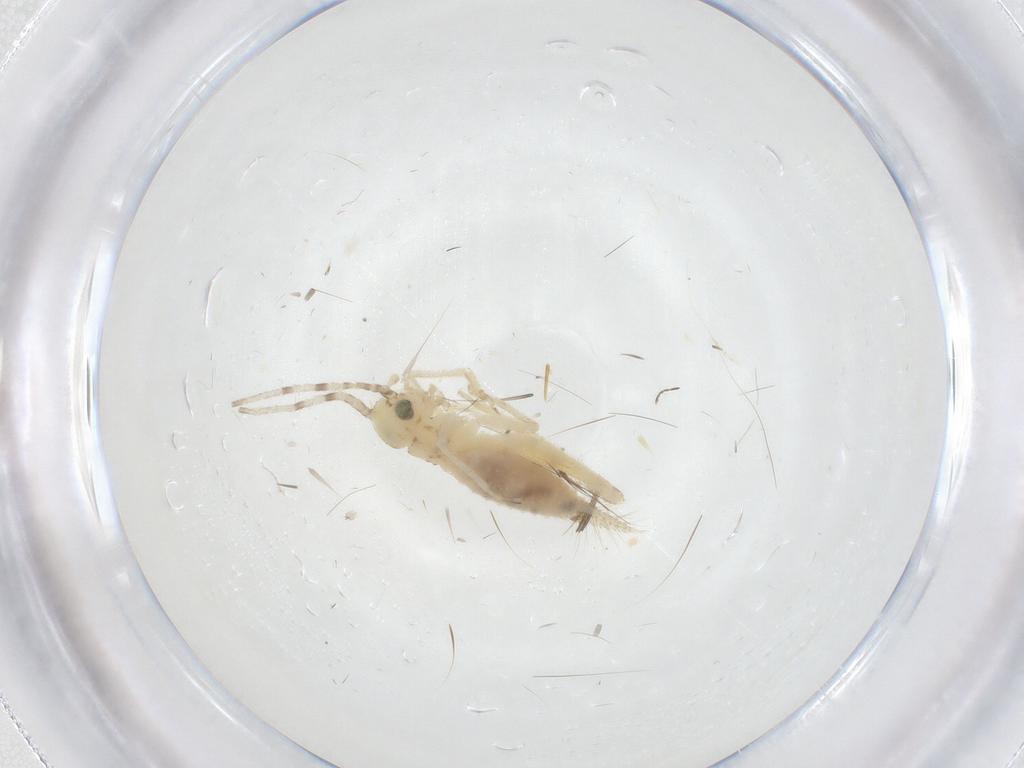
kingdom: Animalia
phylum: Arthropoda
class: Insecta
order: Orthoptera
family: Trigonidiidae
